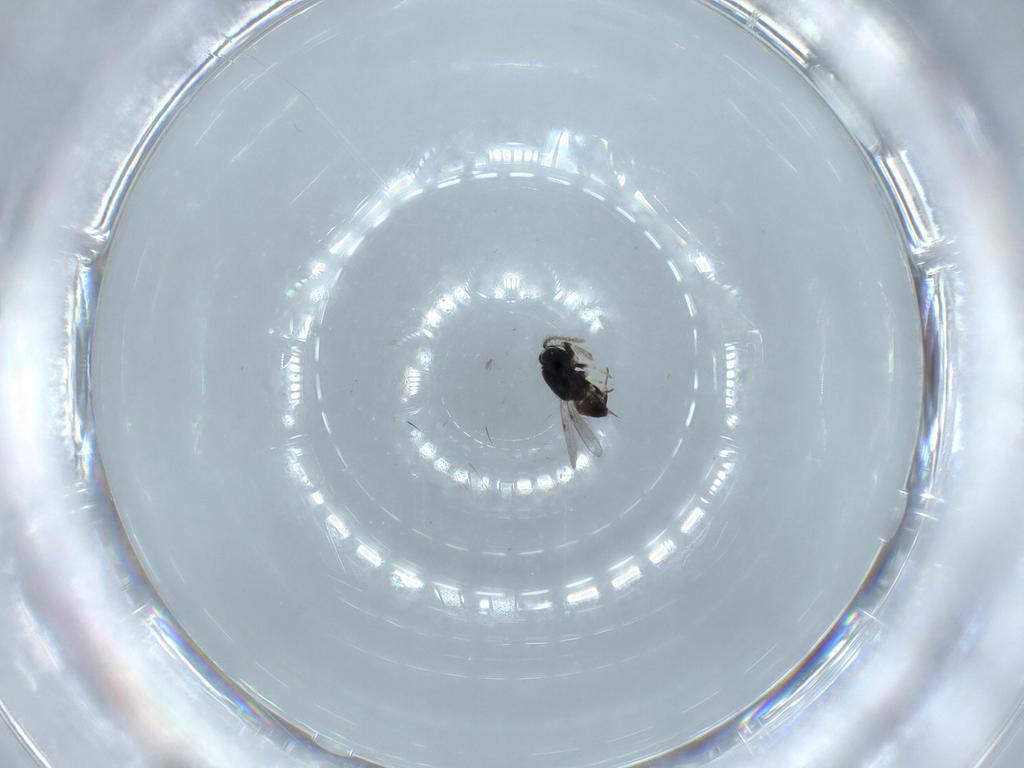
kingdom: Animalia
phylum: Arthropoda
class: Insecta
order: Hymenoptera
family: Encyrtidae
